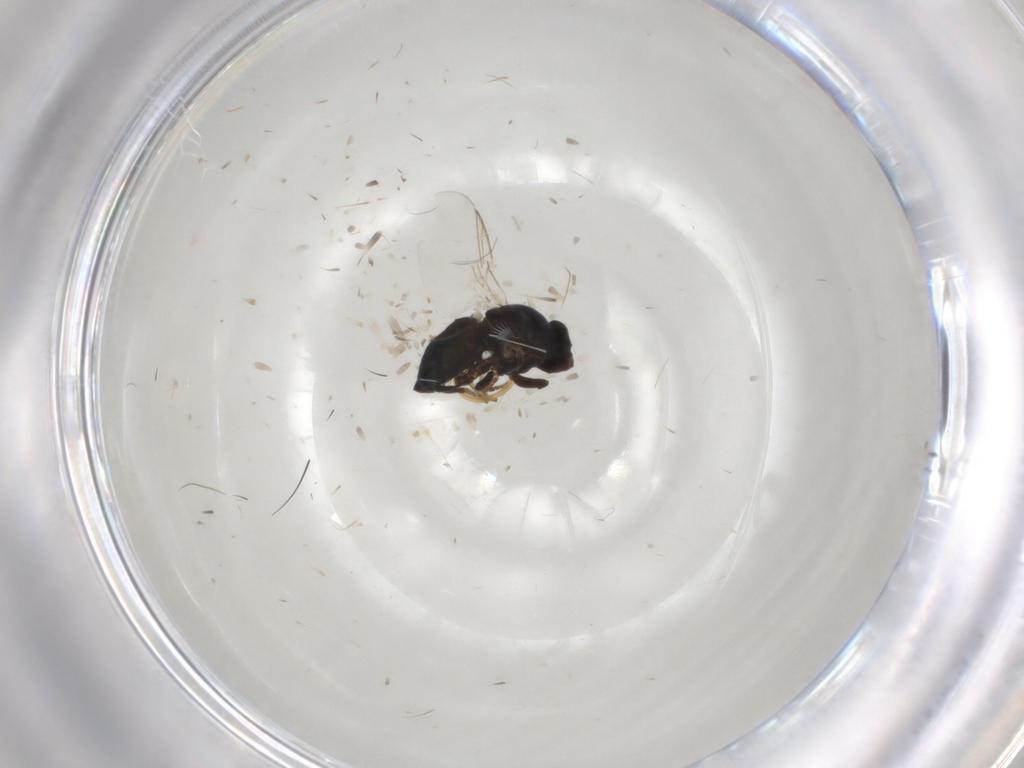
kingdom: Animalia
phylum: Arthropoda
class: Insecta
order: Diptera
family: Agromyzidae
